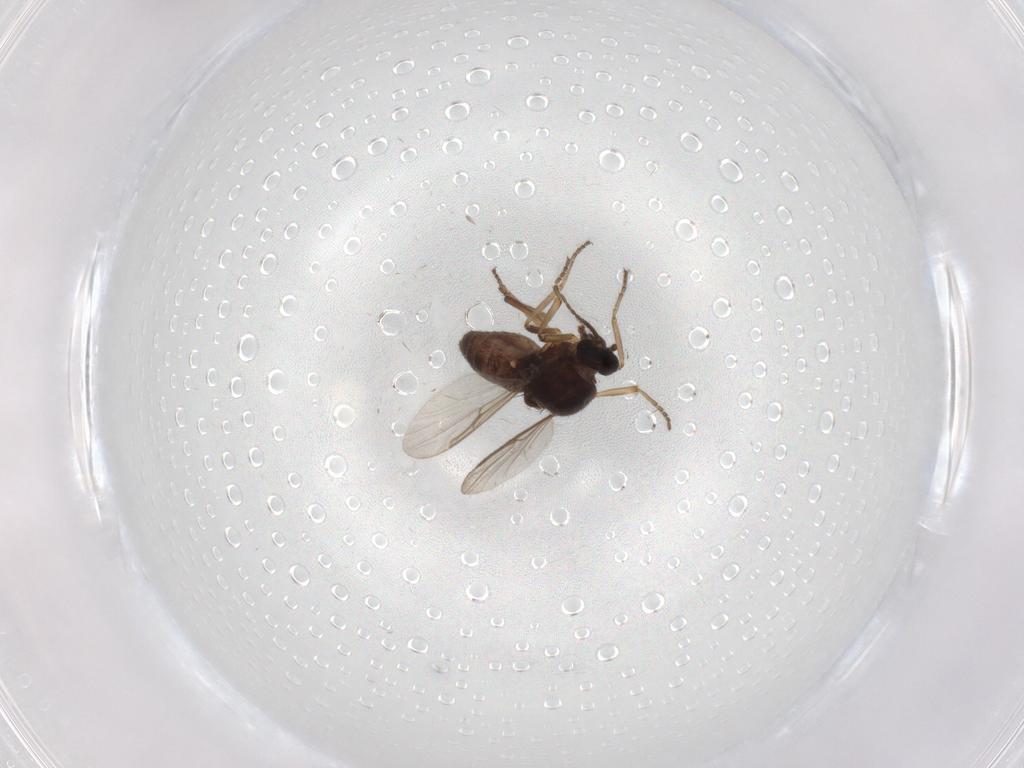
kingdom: Animalia
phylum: Arthropoda
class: Insecta
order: Diptera
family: Ceratopogonidae
